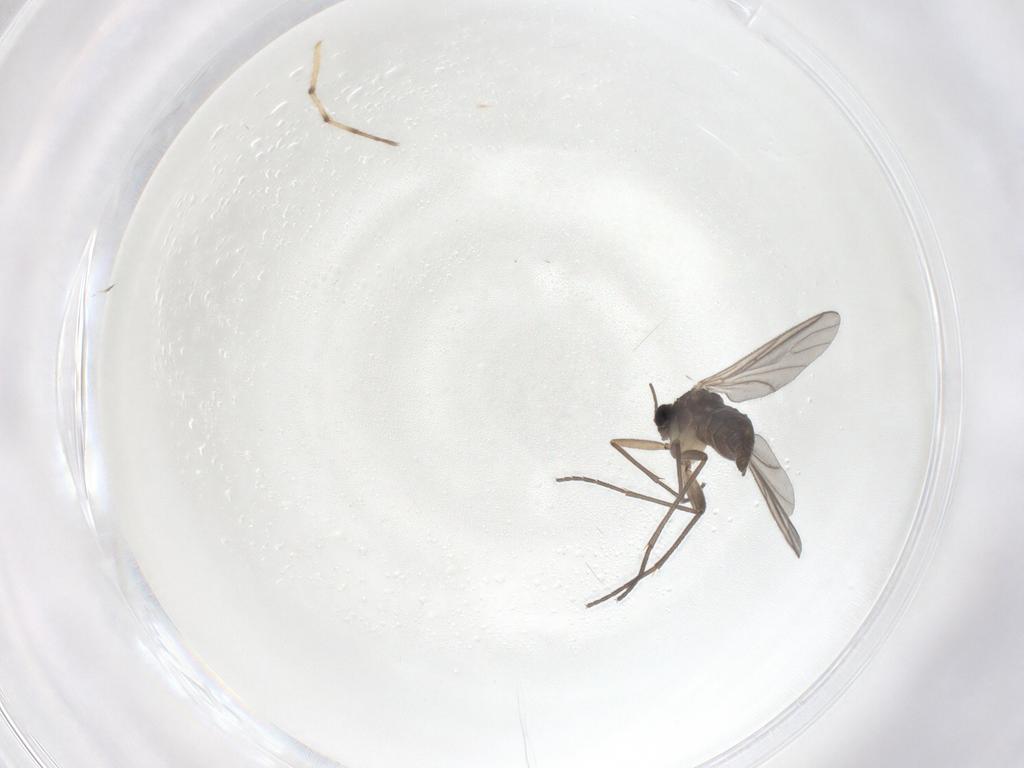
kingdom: Animalia
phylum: Arthropoda
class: Insecta
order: Diptera
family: Sciaridae
